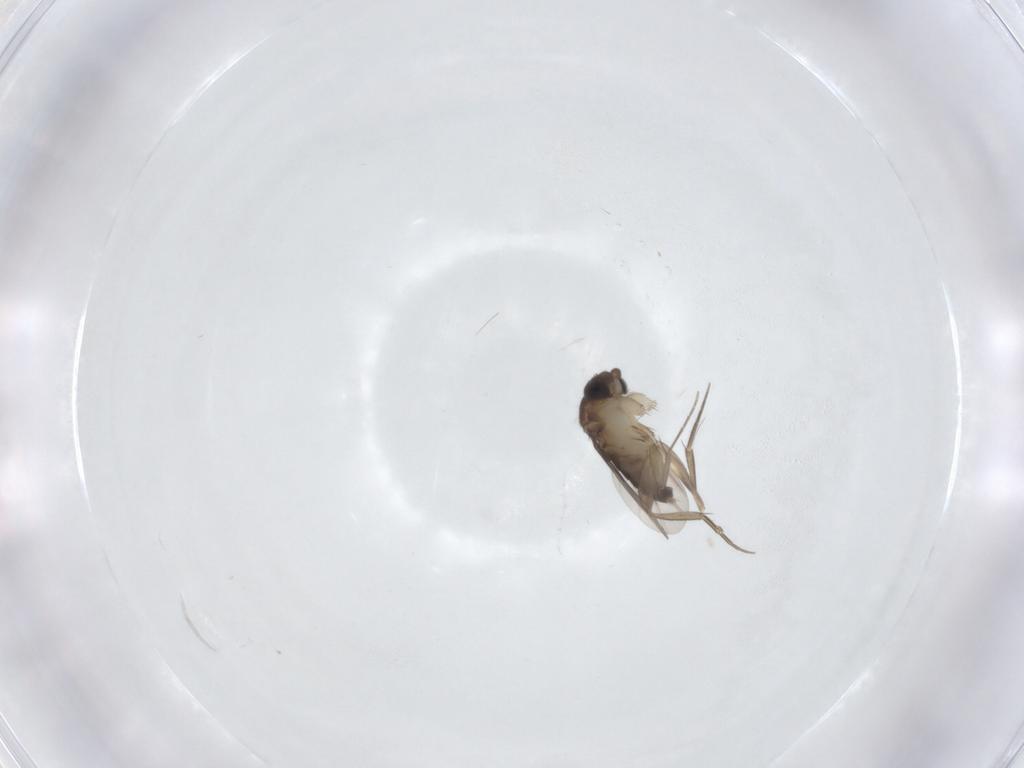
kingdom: Animalia
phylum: Arthropoda
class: Insecta
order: Diptera
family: Phoridae
